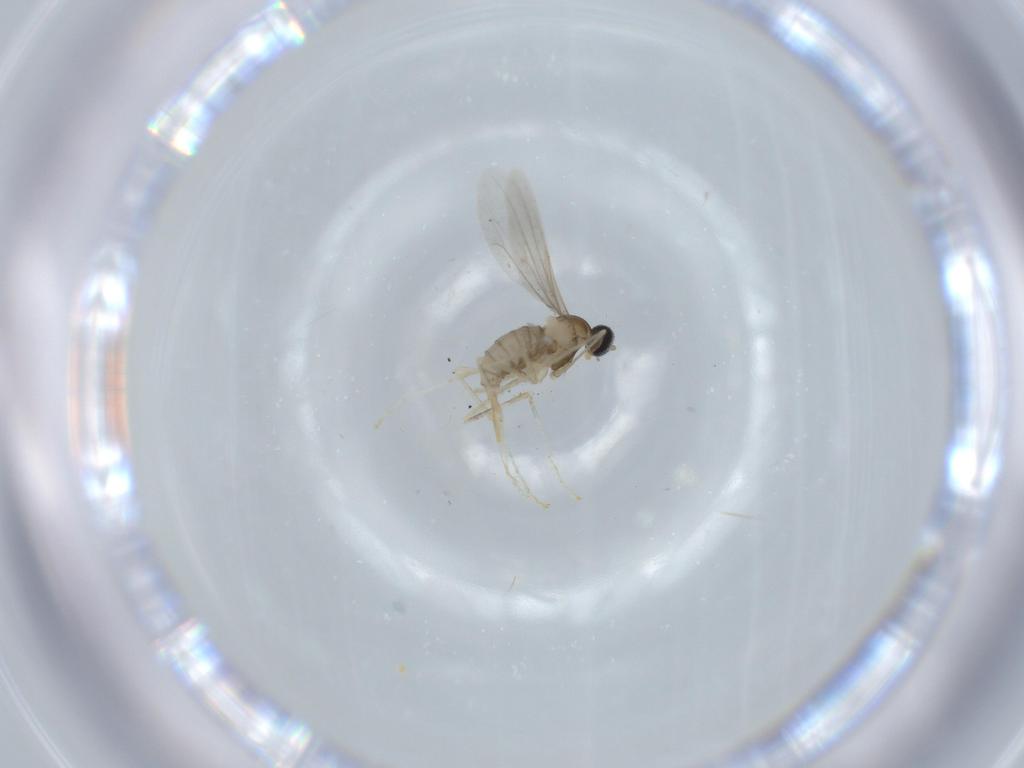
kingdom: Animalia
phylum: Arthropoda
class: Insecta
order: Diptera
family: Cecidomyiidae
